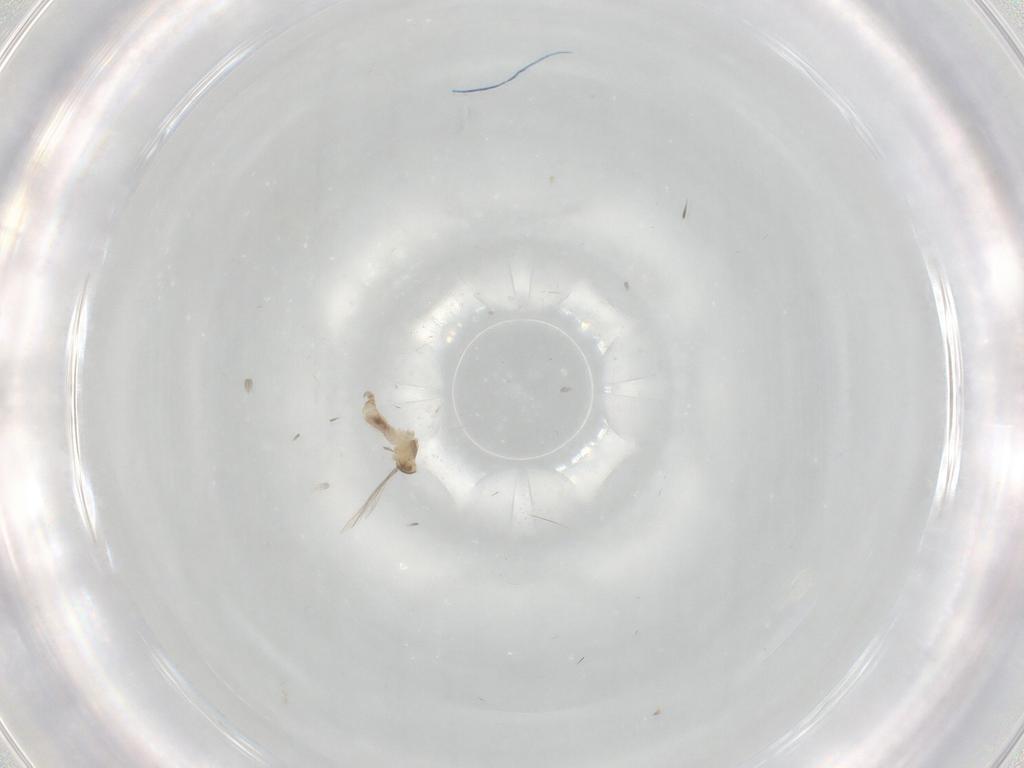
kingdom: Animalia
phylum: Arthropoda
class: Insecta
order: Diptera
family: Cecidomyiidae
